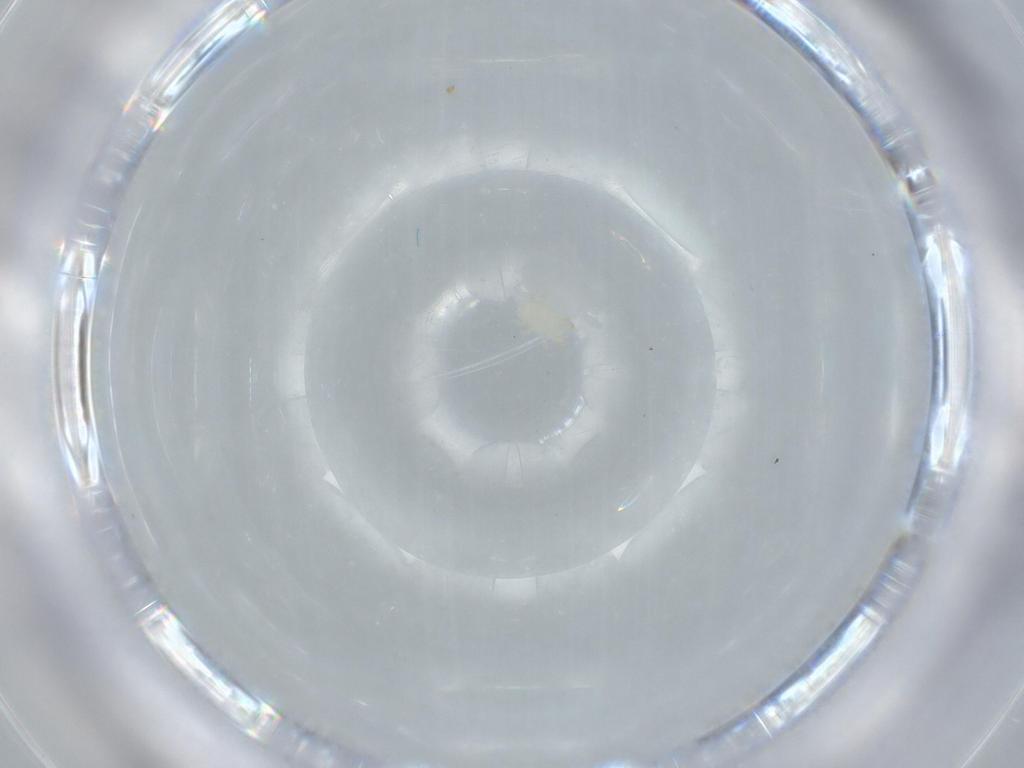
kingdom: Animalia
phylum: Arthropoda
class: Arachnida
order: Mesostigmata
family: Dermanyssidae
